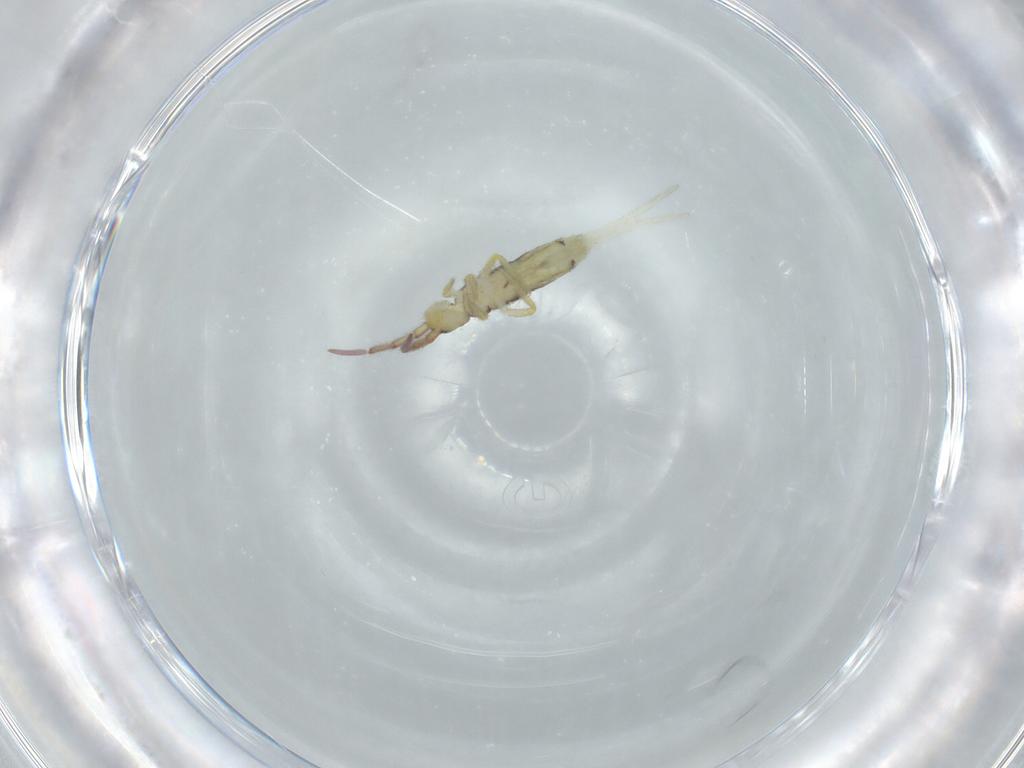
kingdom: Animalia
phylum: Arthropoda
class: Collembola
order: Entomobryomorpha
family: Entomobryidae
